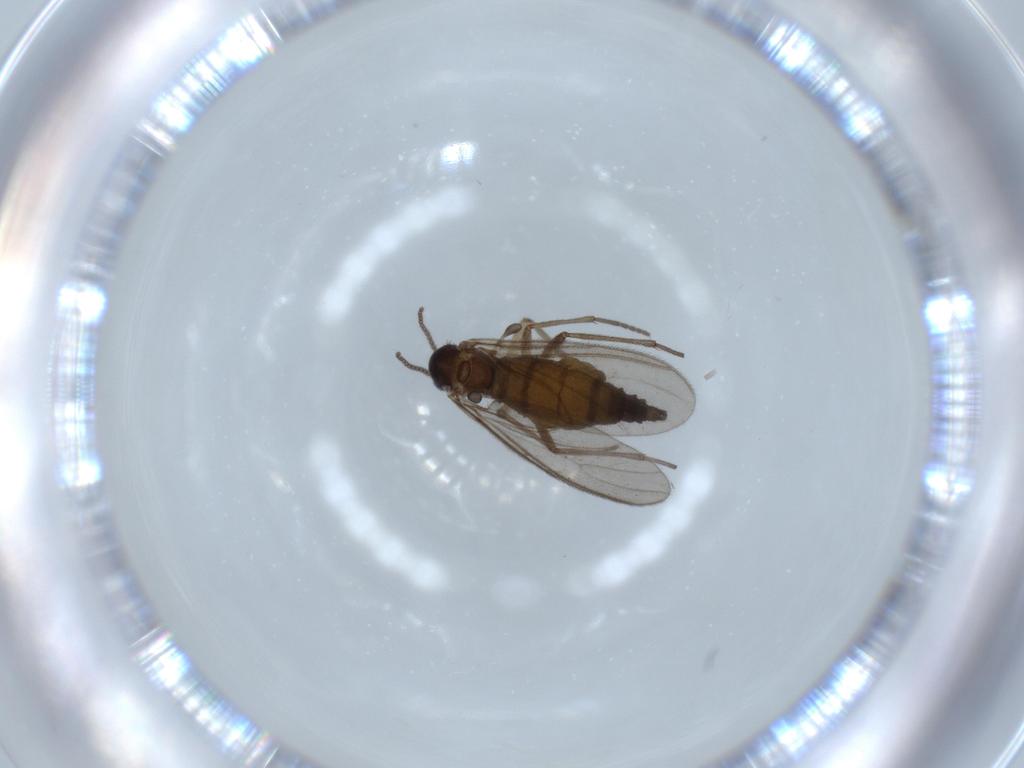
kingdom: Animalia
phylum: Arthropoda
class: Insecta
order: Diptera
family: Sciaridae
